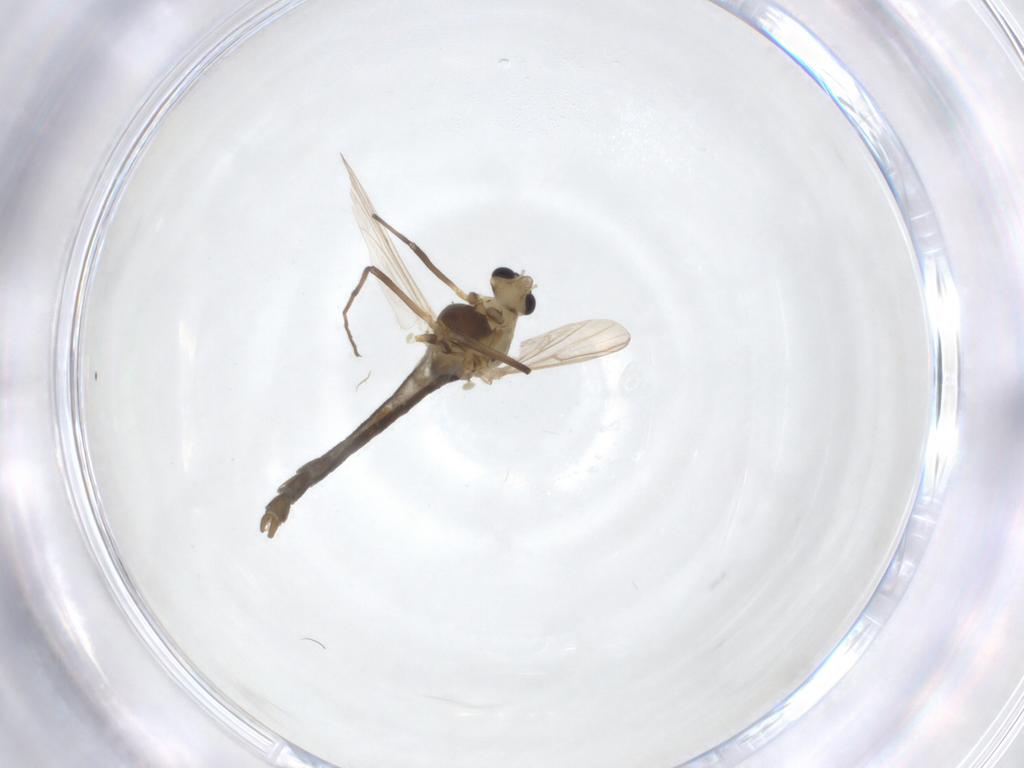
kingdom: Animalia
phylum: Arthropoda
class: Insecta
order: Diptera
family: Chironomidae
